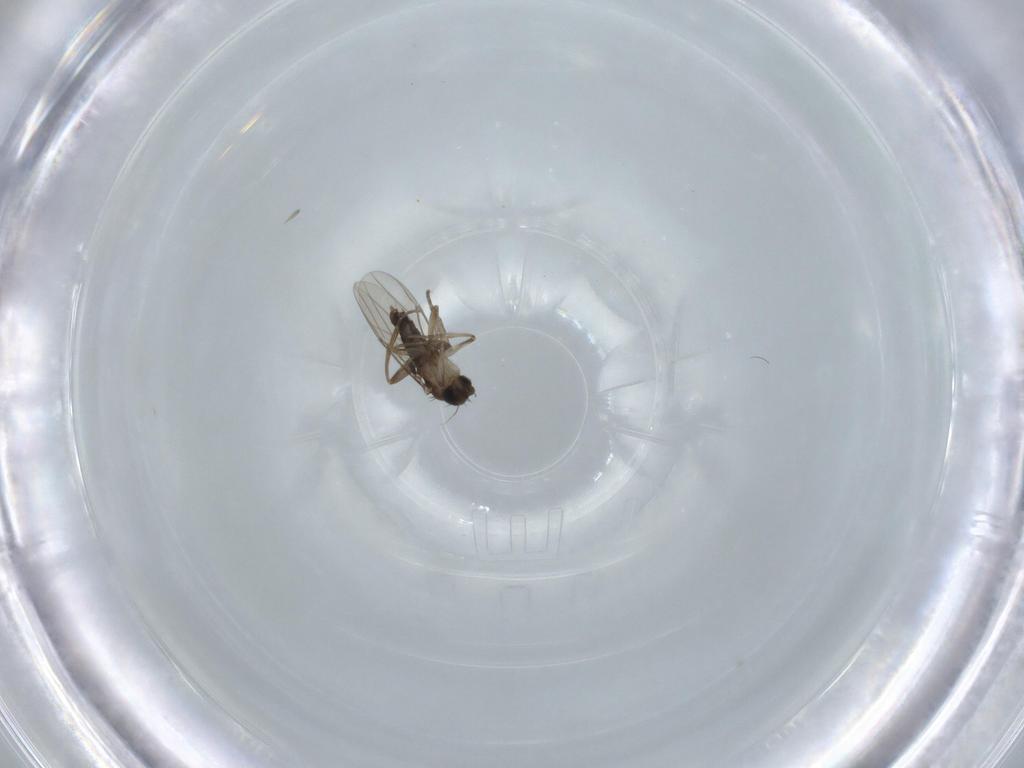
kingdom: Animalia
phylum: Arthropoda
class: Insecta
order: Diptera
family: Phoridae
